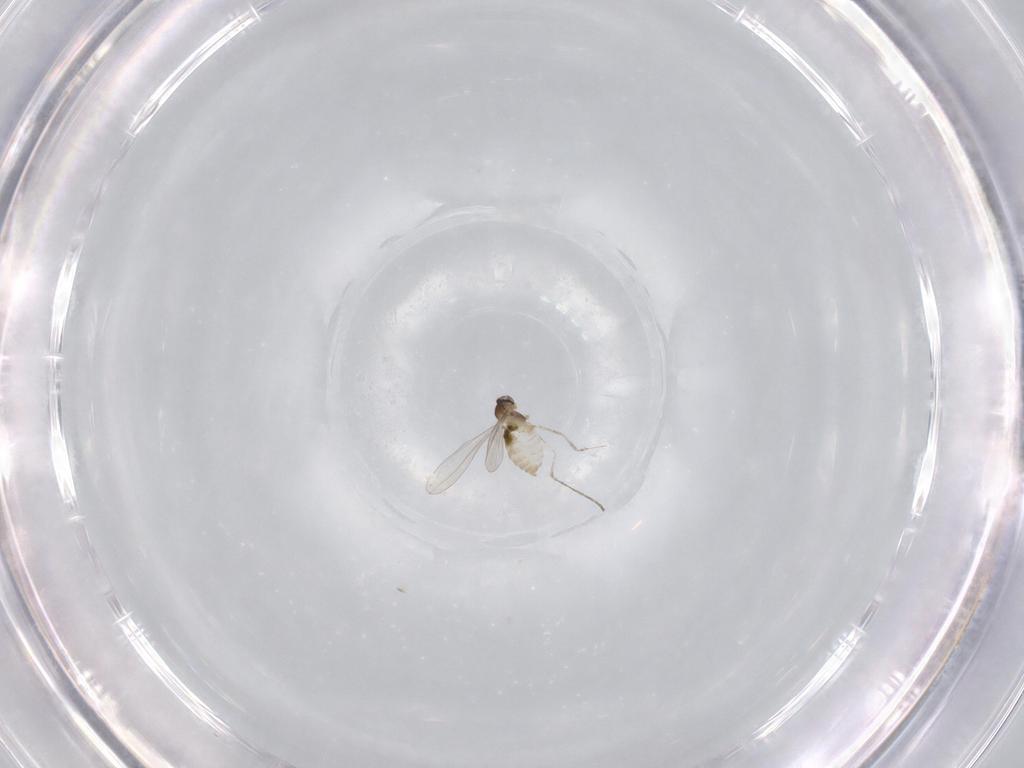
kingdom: Animalia
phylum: Arthropoda
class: Insecta
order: Diptera
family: Cecidomyiidae
